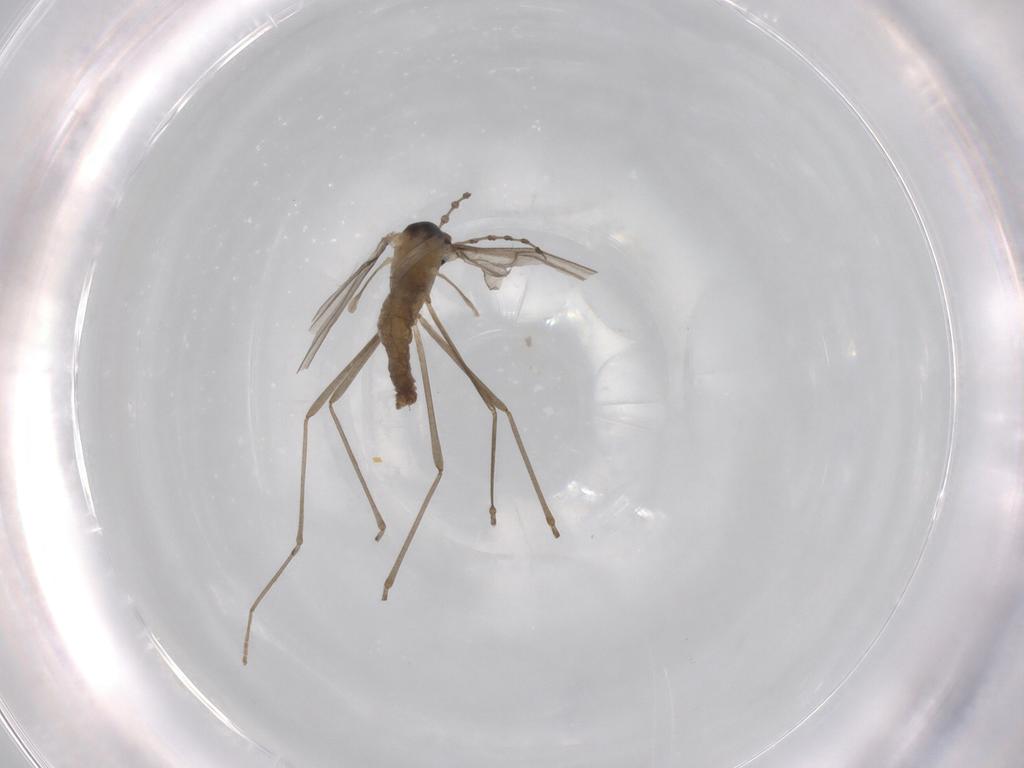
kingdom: Animalia
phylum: Arthropoda
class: Insecta
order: Diptera
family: Cecidomyiidae
